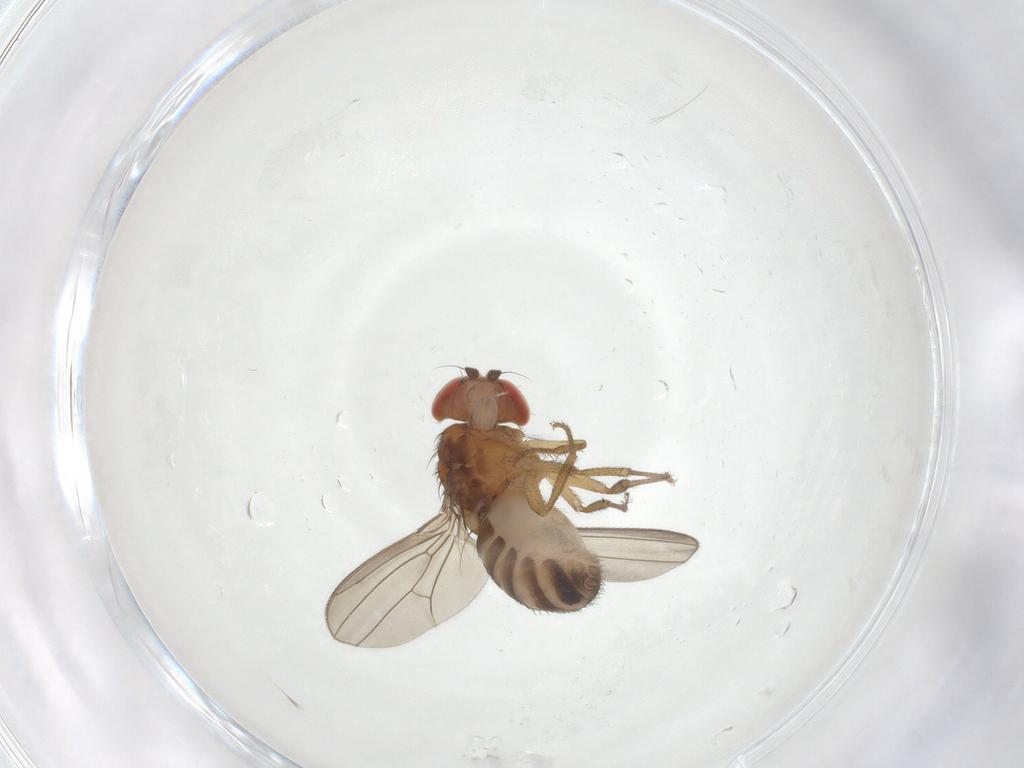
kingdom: Animalia
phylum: Arthropoda
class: Insecta
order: Diptera
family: Drosophilidae
